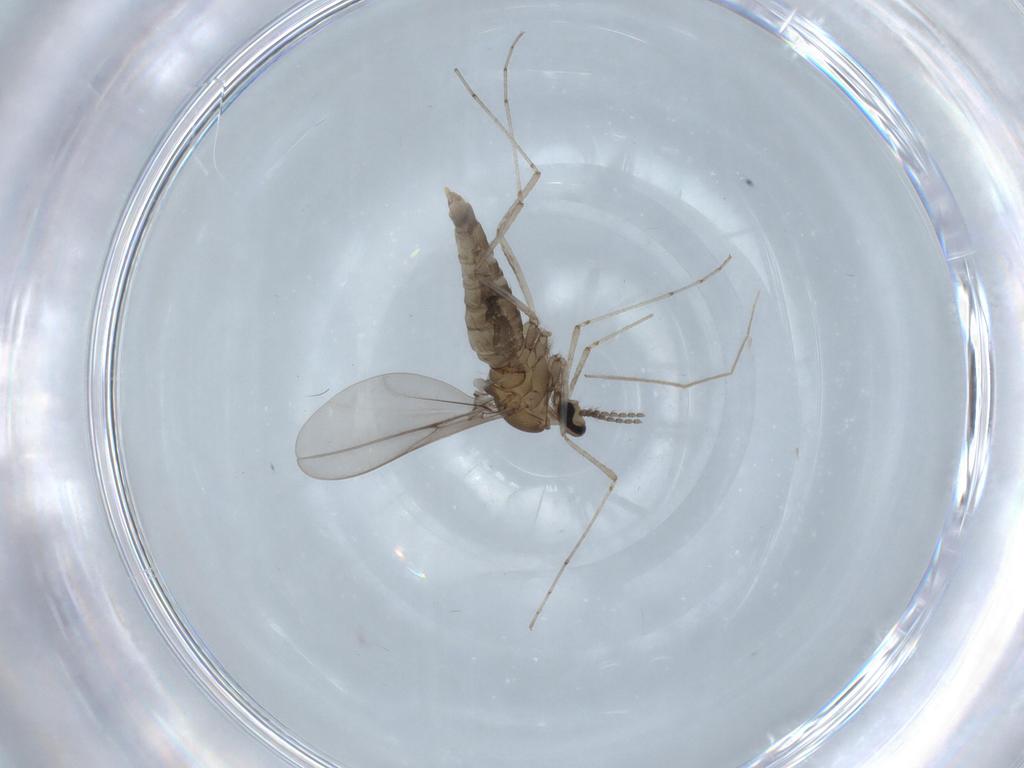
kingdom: Animalia
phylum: Arthropoda
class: Insecta
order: Diptera
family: Cecidomyiidae
